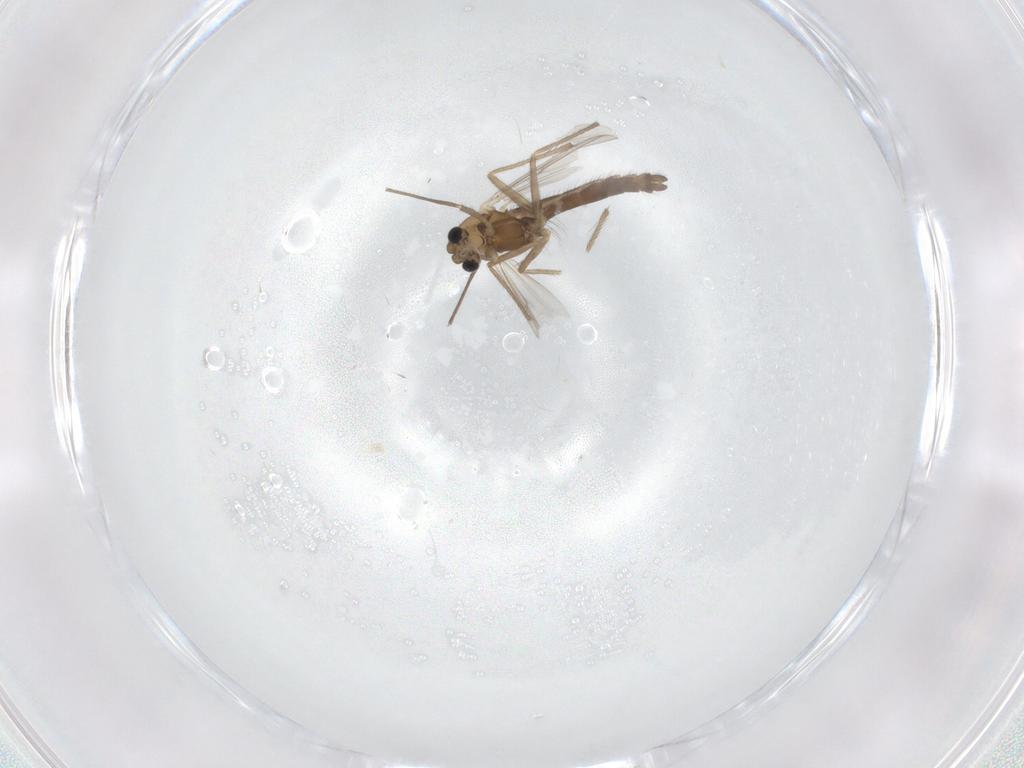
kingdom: Animalia
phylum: Arthropoda
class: Insecta
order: Diptera
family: Chironomidae
